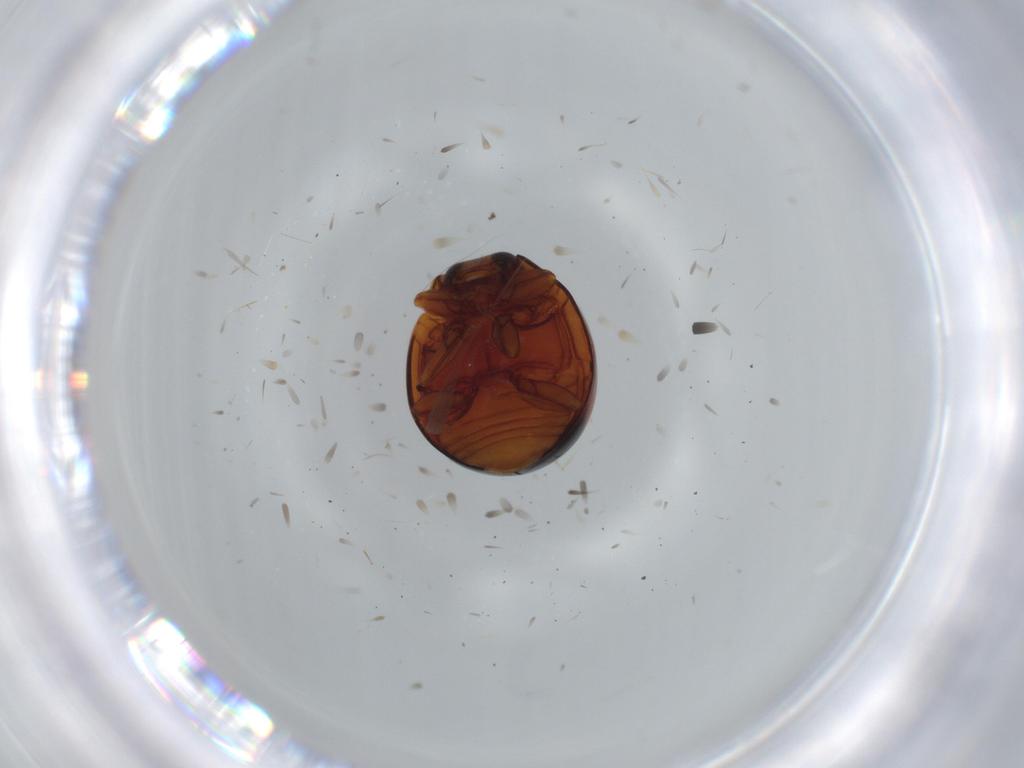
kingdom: Animalia
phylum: Arthropoda
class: Insecta
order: Coleoptera
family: Coccinellidae
